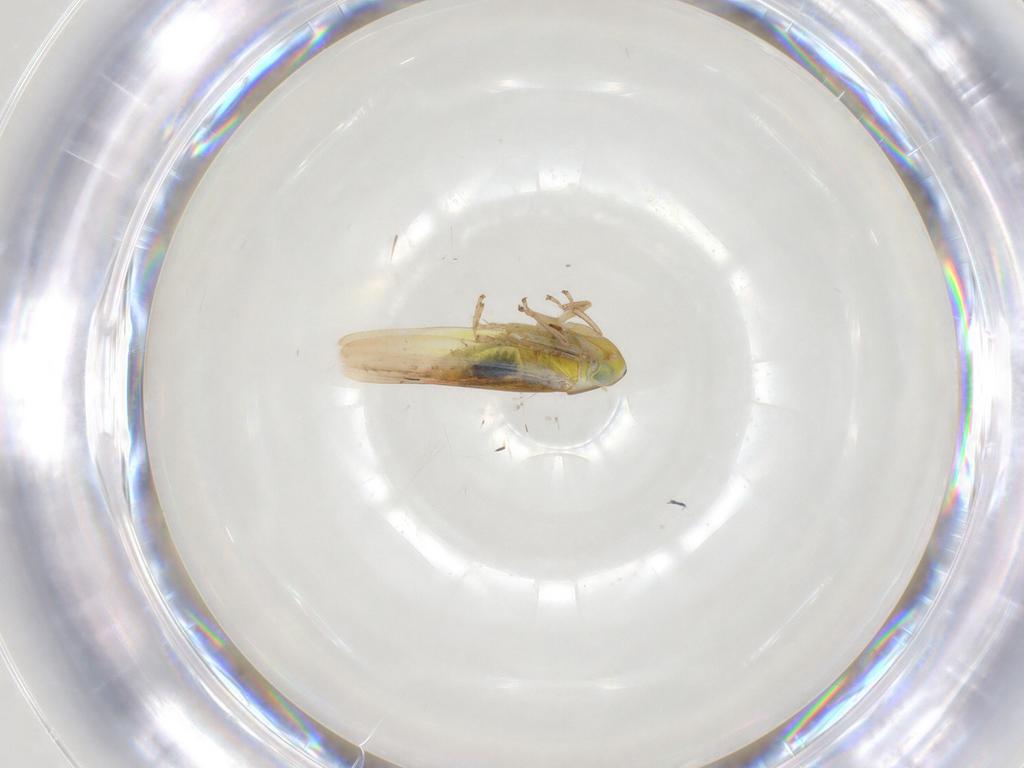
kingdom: Animalia
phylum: Arthropoda
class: Insecta
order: Hemiptera
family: Cicadellidae
